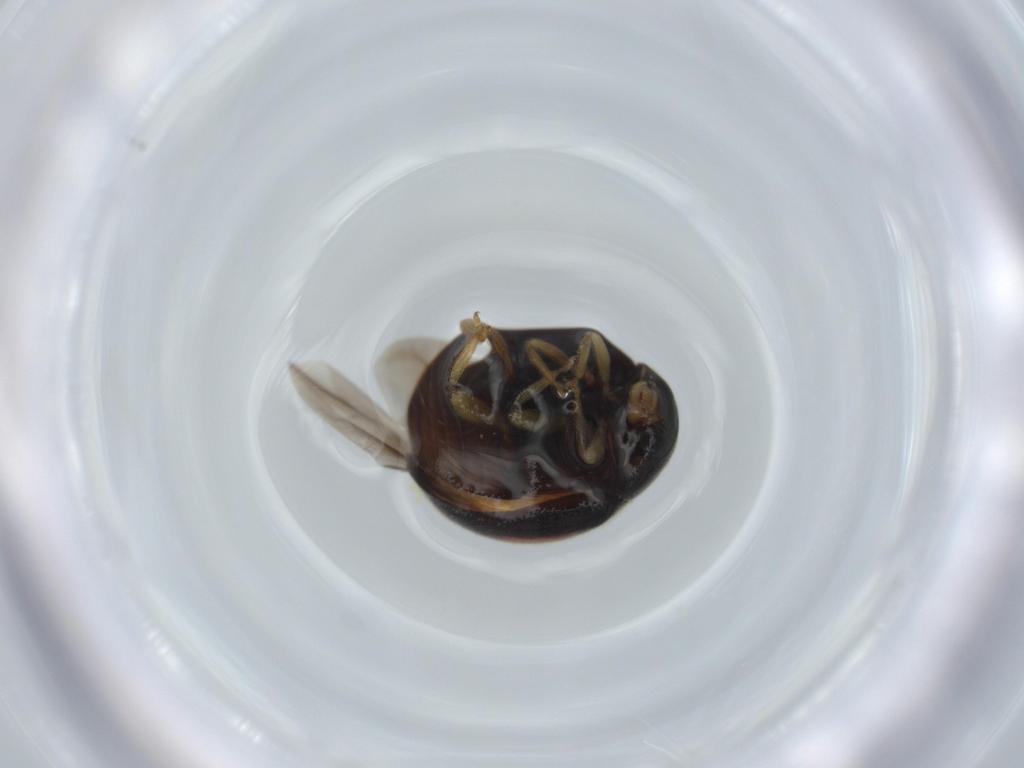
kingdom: Animalia
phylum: Arthropoda
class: Insecta
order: Coleoptera
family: Coccinellidae
